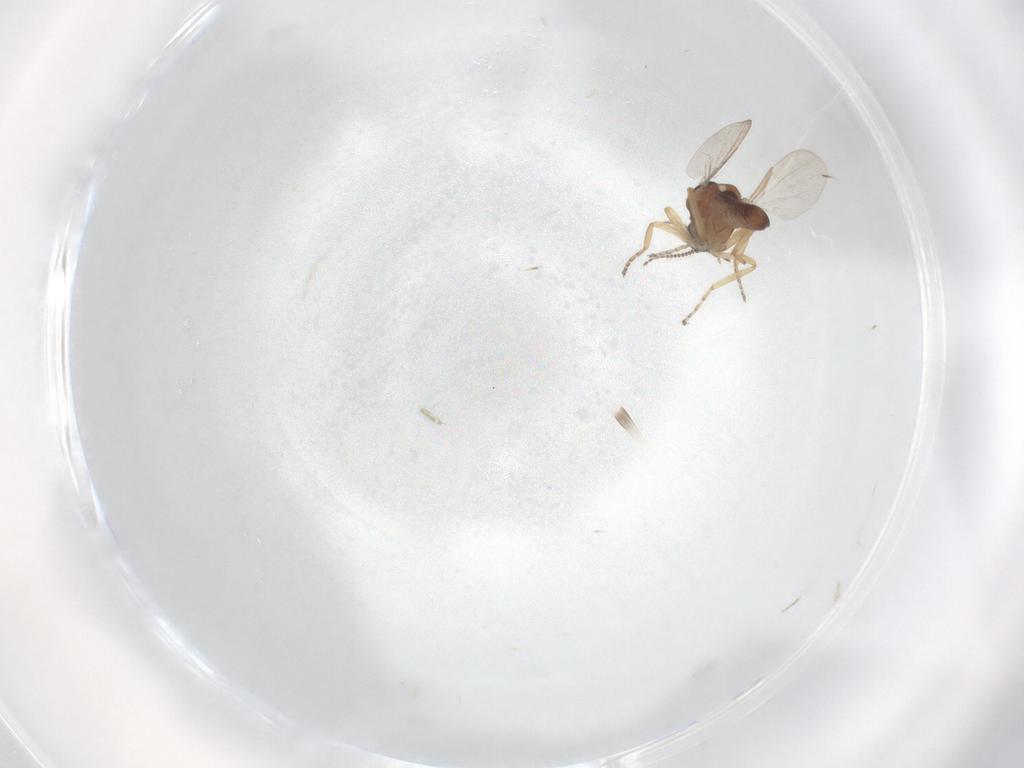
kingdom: Animalia
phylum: Arthropoda
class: Insecta
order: Diptera
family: Ceratopogonidae
